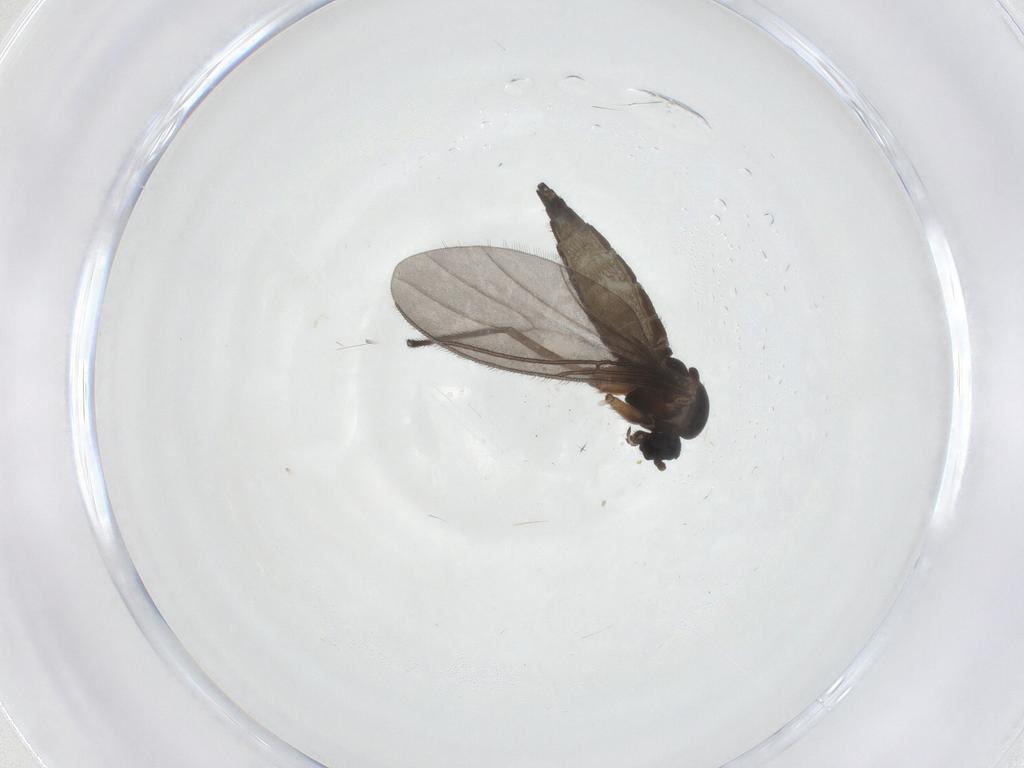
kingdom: Animalia
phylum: Arthropoda
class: Insecta
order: Diptera
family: Sciaridae
